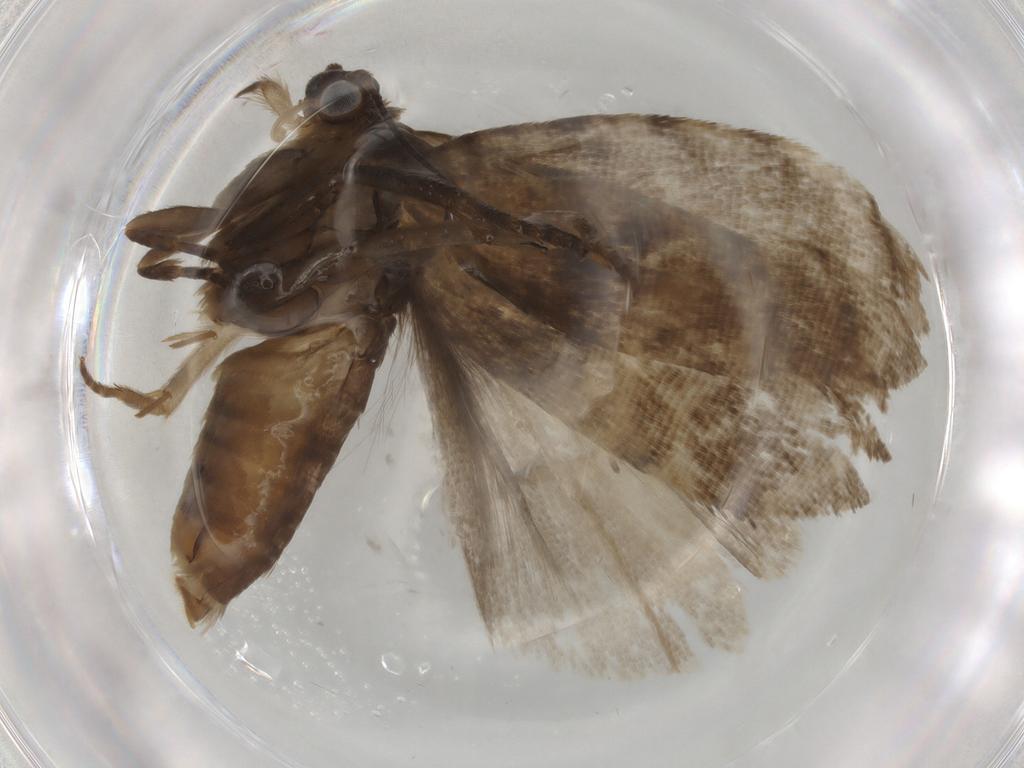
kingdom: Animalia
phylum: Arthropoda
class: Insecta
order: Lepidoptera
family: Tortricidae
